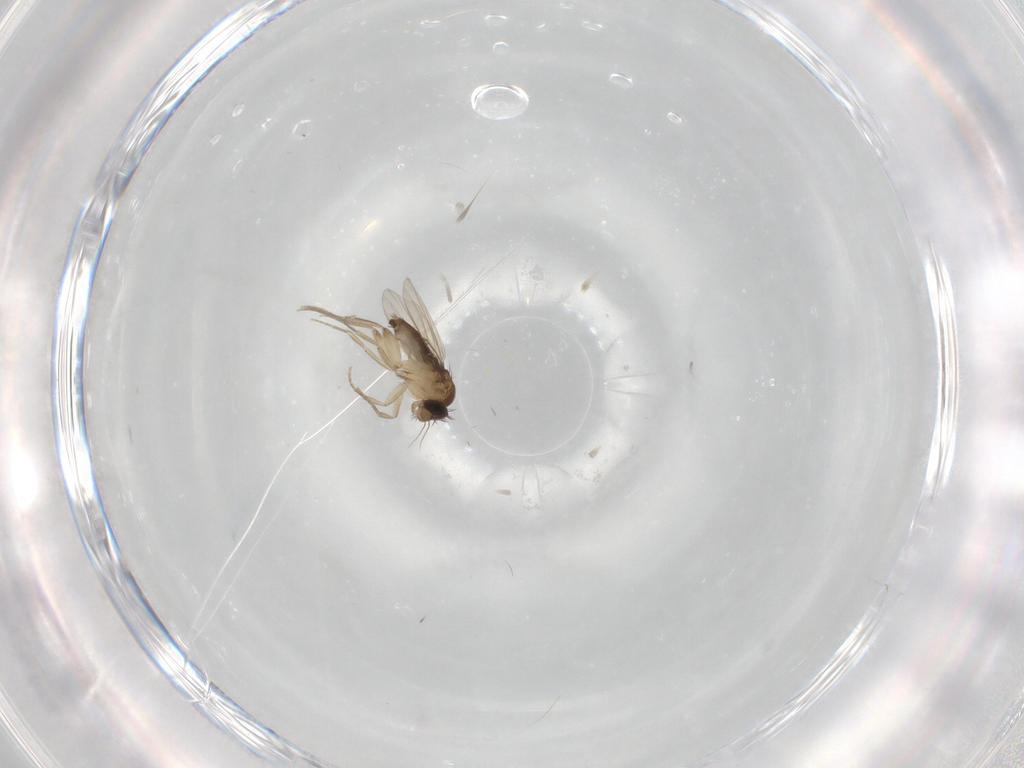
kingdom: Animalia
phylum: Arthropoda
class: Insecta
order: Diptera
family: Phoridae
